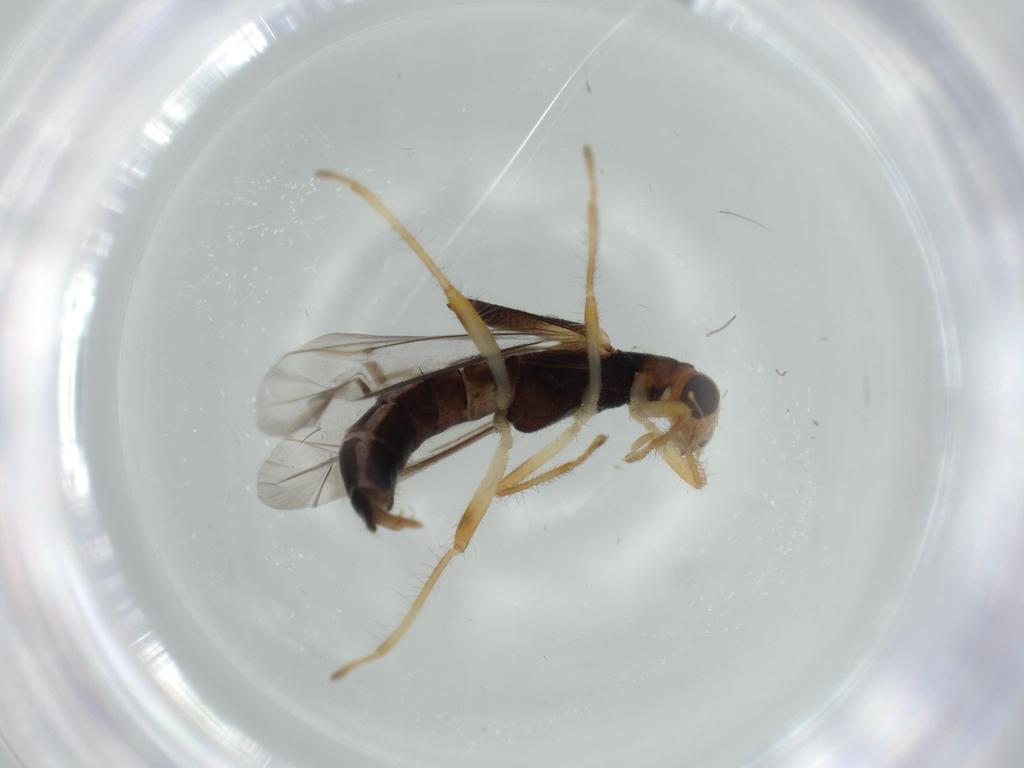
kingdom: Animalia
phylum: Arthropoda
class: Insecta
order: Coleoptera
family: Cleridae
